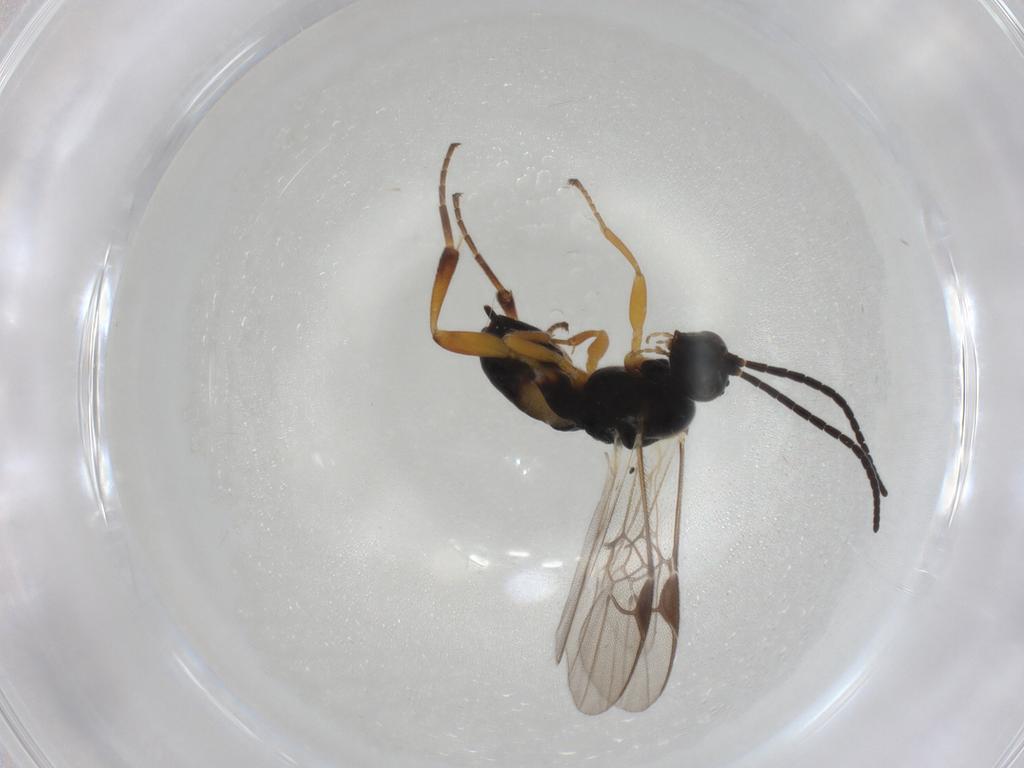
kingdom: Animalia
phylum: Arthropoda
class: Insecta
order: Hymenoptera
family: Braconidae
